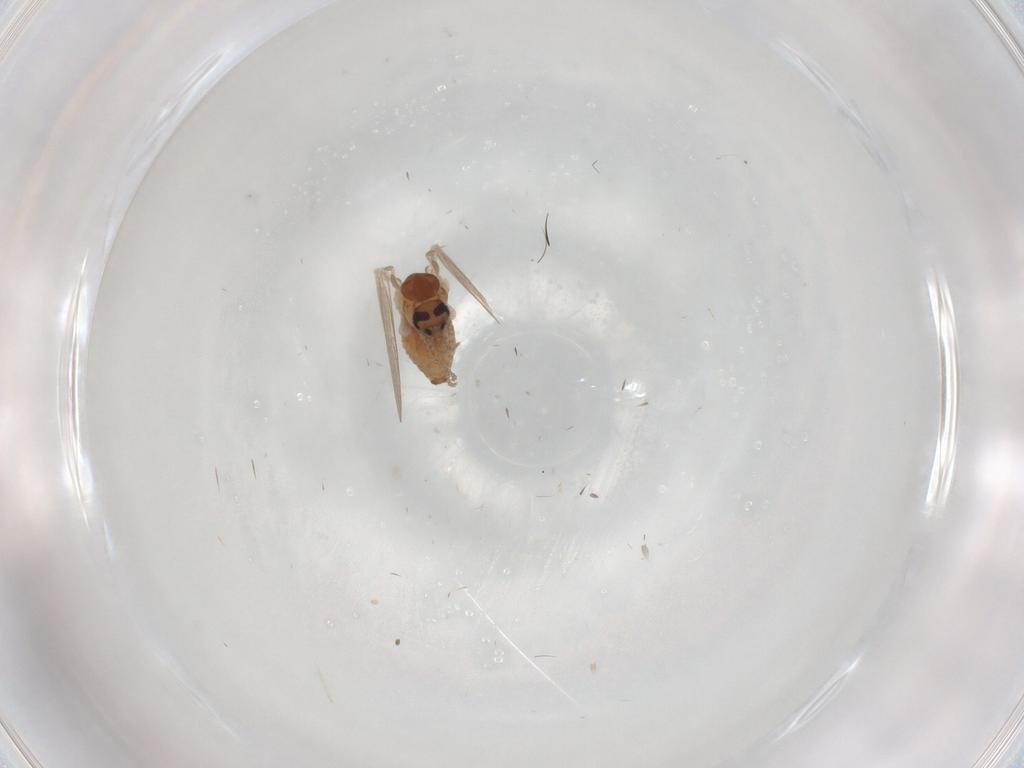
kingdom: Animalia
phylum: Arthropoda
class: Insecta
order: Diptera
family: Psychodidae
